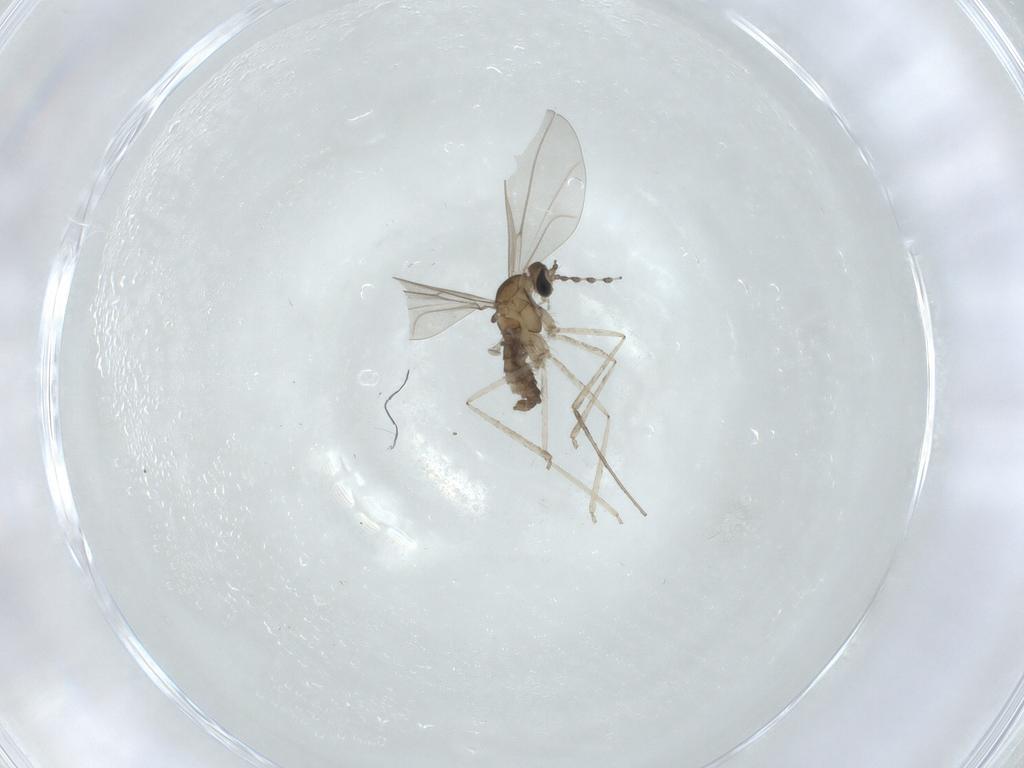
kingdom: Animalia
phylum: Arthropoda
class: Insecta
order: Diptera
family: Cecidomyiidae
